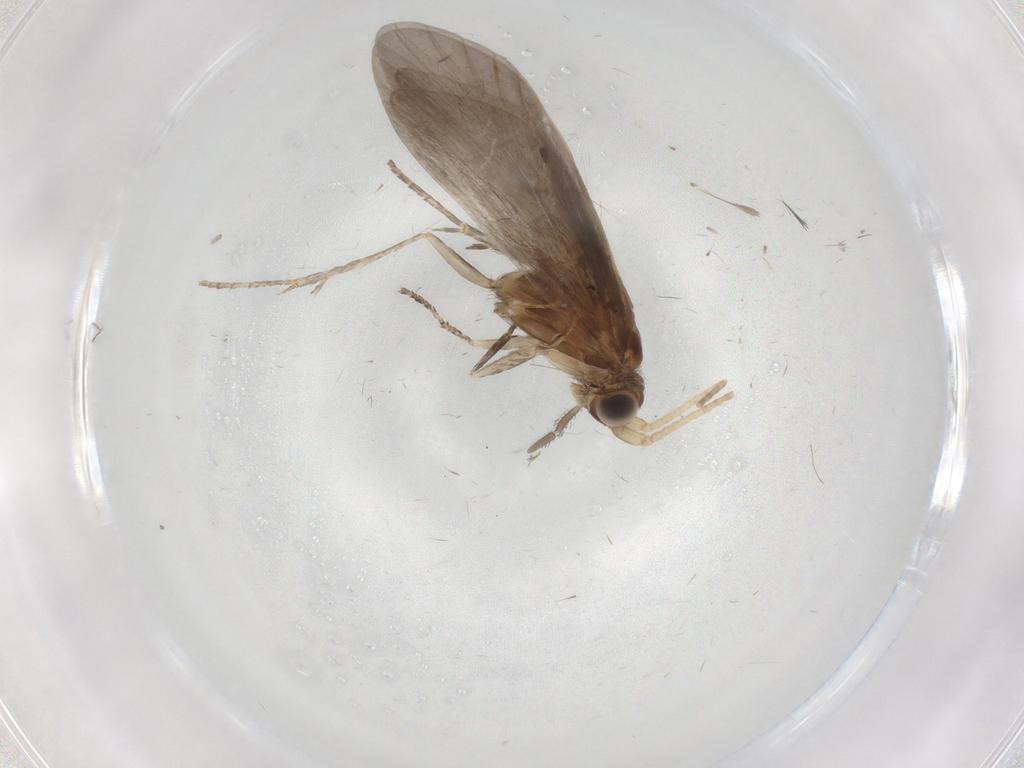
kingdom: Animalia
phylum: Arthropoda
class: Insecta
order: Trichoptera
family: Helicopsychidae
